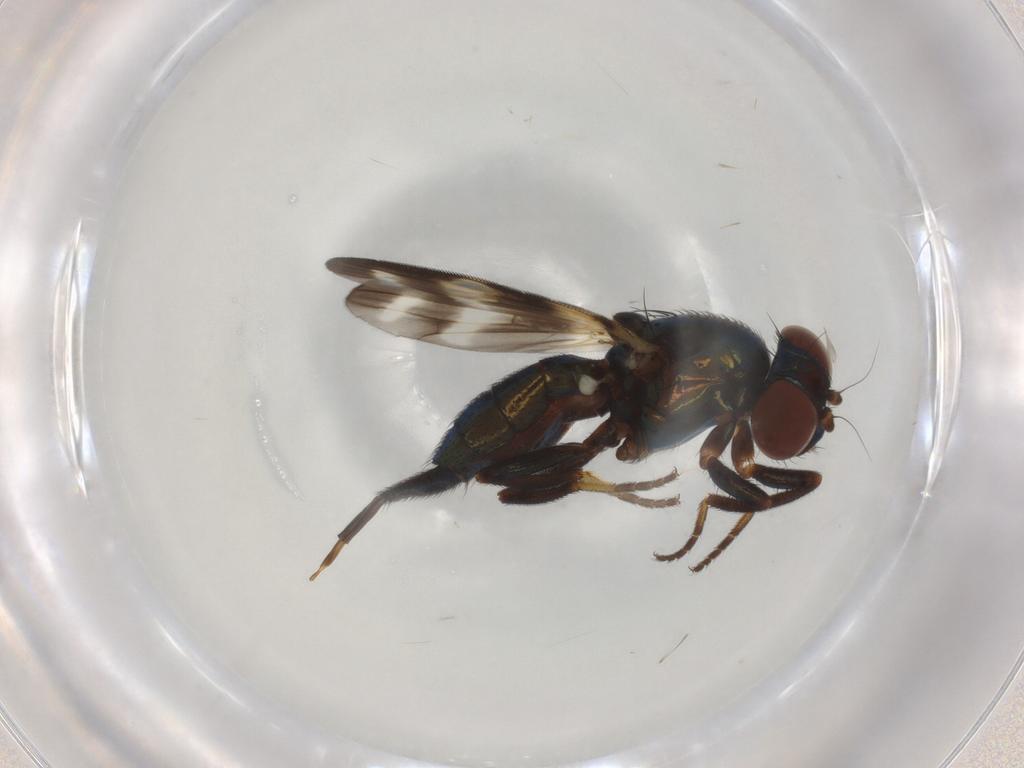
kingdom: Animalia
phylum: Arthropoda
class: Insecta
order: Diptera
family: Ulidiidae
